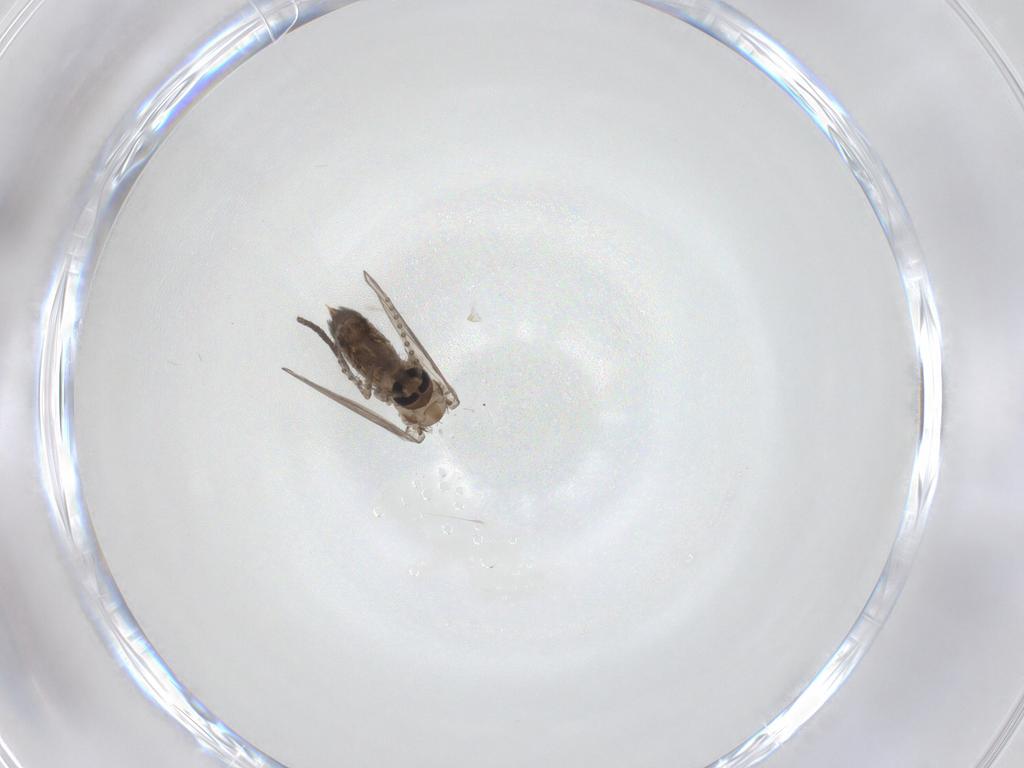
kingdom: Animalia
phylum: Arthropoda
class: Insecta
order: Diptera
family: Psychodidae
